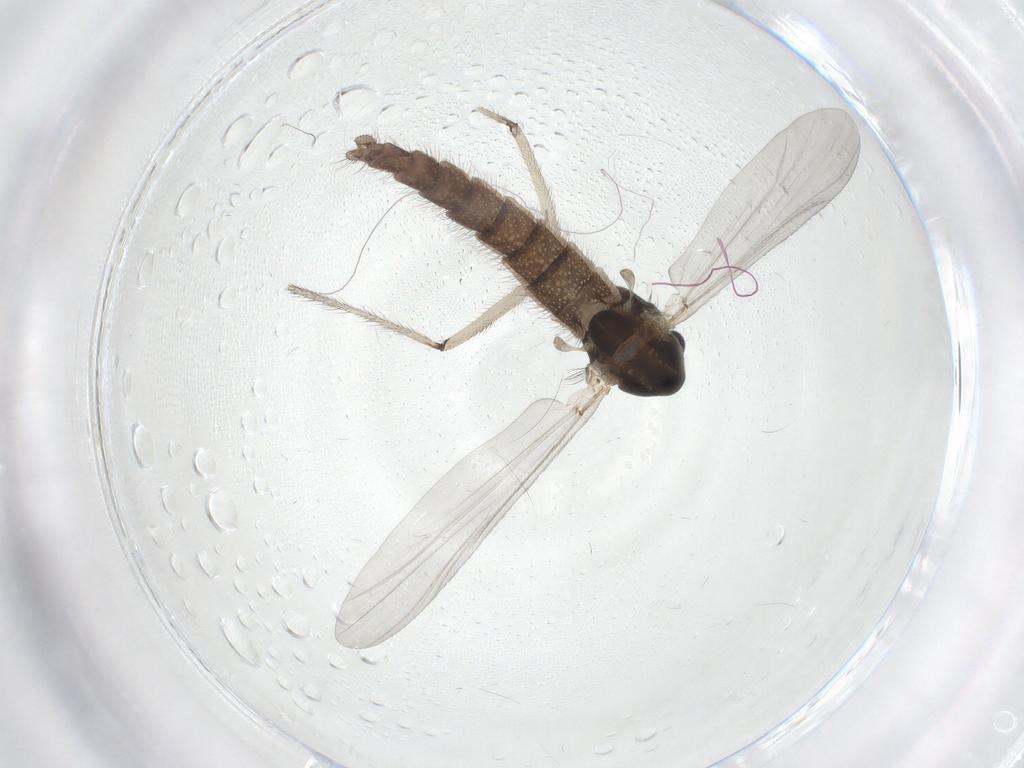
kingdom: Animalia
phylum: Arthropoda
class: Insecta
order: Diptera
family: Chironomidae
